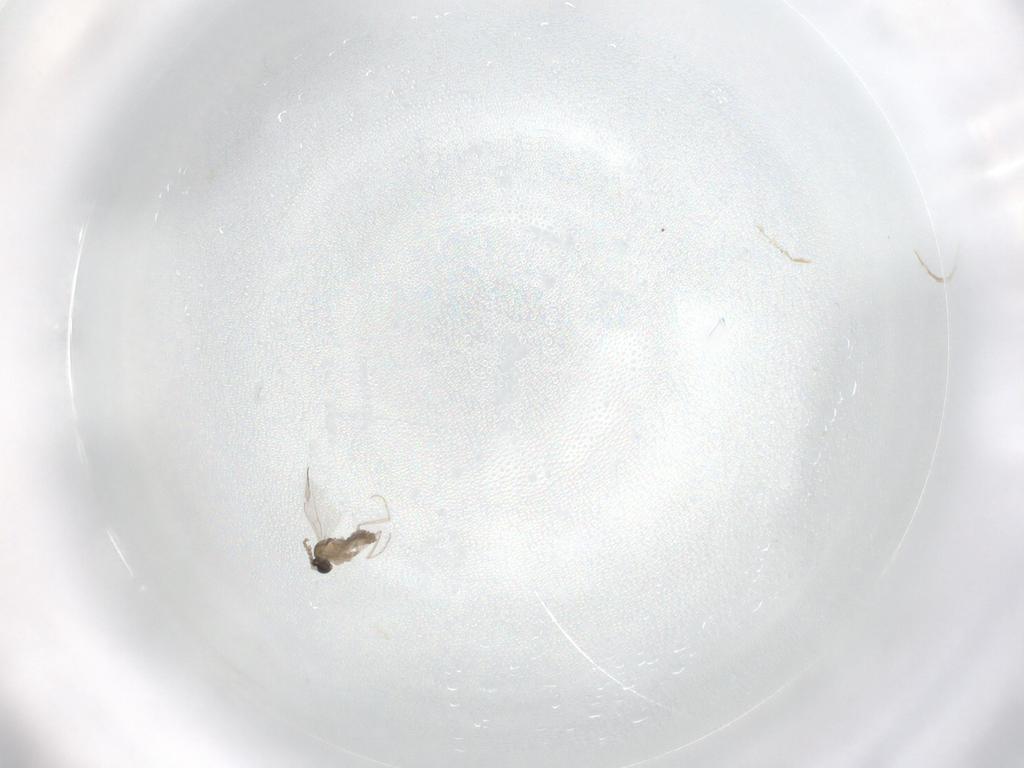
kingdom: Animalia
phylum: Arthropoda
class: Insecta
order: Diptera
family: Cecidomyiidae
